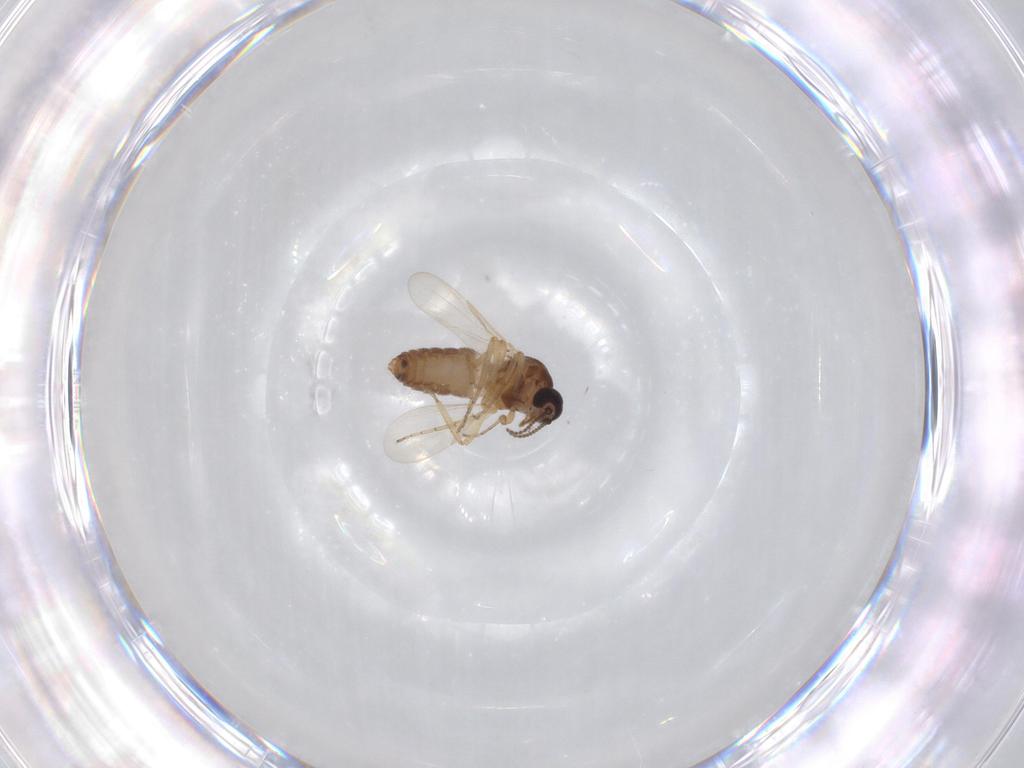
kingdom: Animalia
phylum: Arthropoda
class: Insecta
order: Diptera
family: Ceratopogonidae
